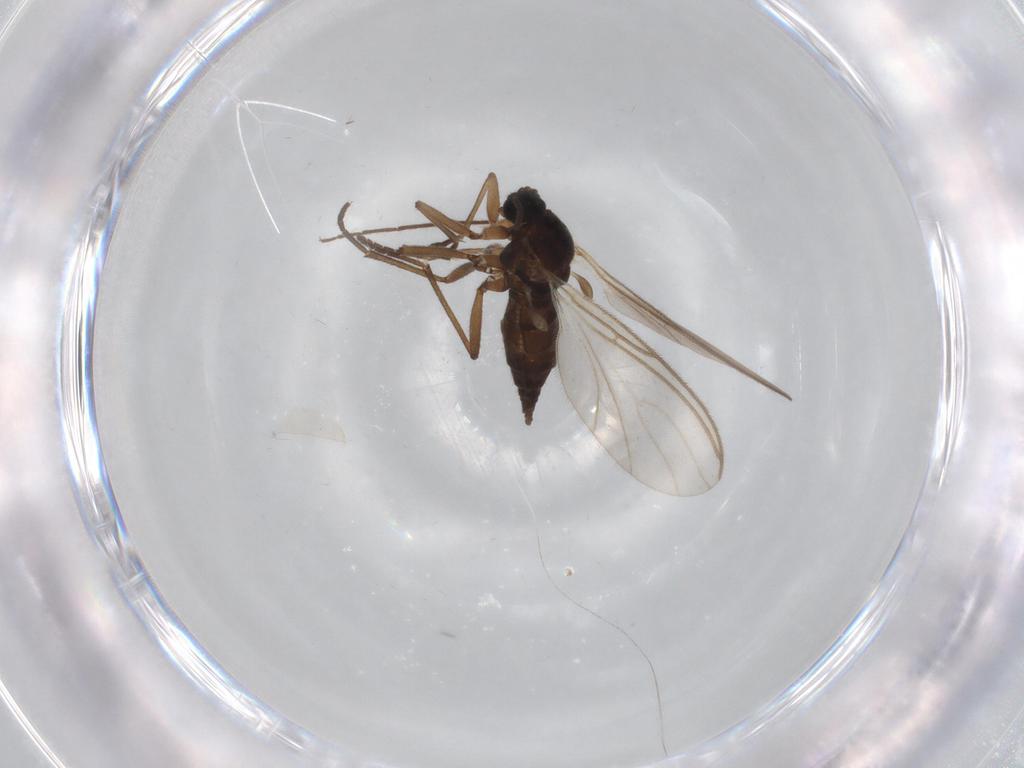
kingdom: Animalia
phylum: Arthropoda
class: Insecta
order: Diptera
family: Sciaridae
